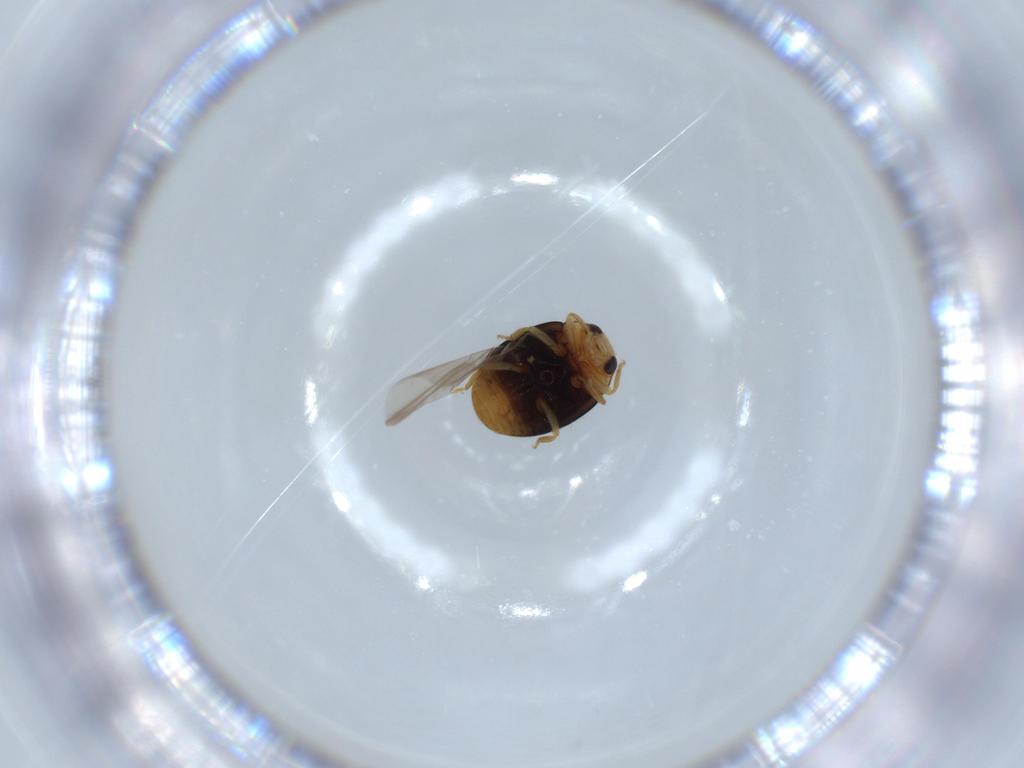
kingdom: Animalia
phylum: Arthropoda
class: Insecta
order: Coleoptera
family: Coccinellidae
